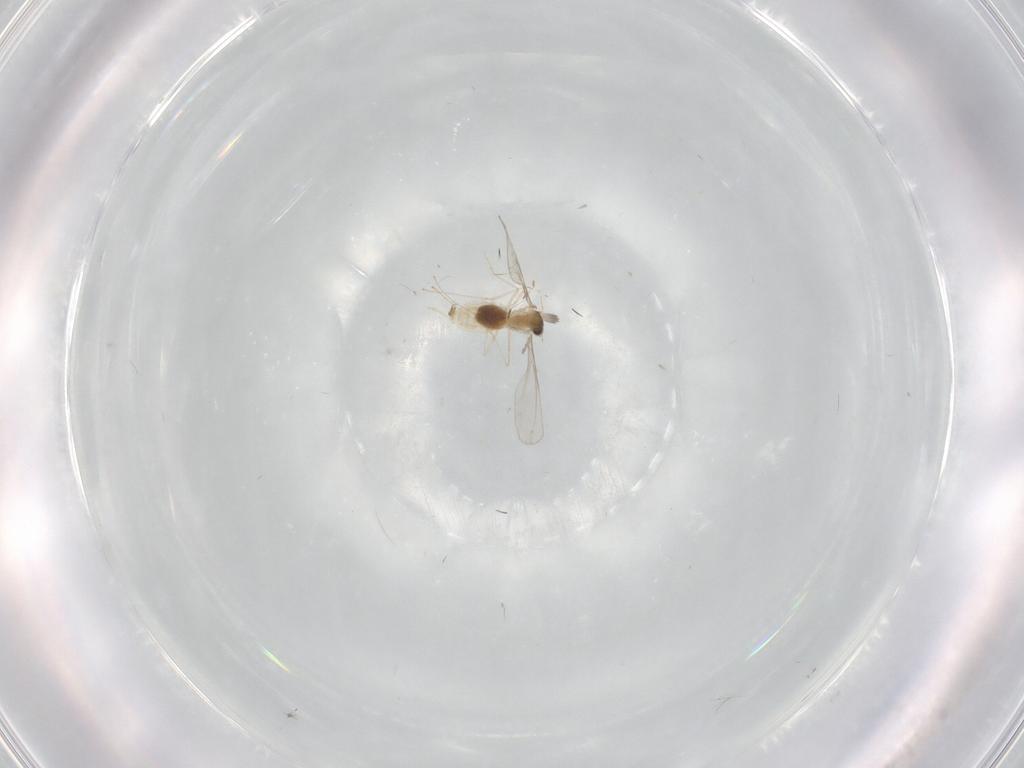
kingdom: Animalia
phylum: Arthropoda
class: Insecta
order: Diptera
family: Cecidomyiidae
